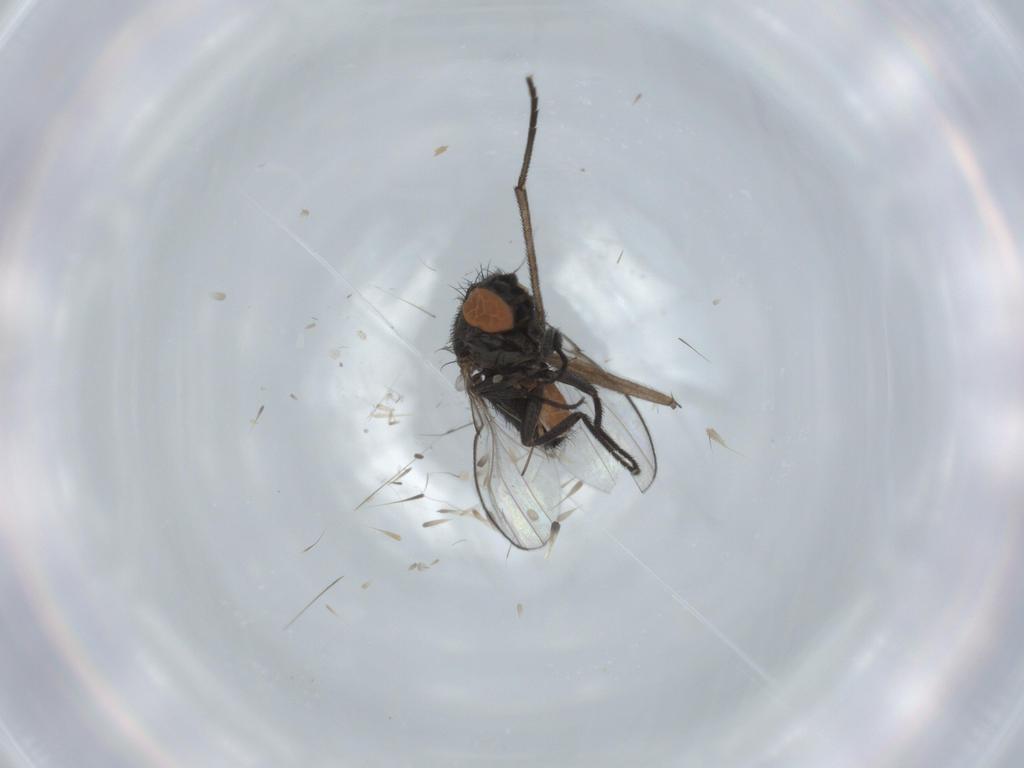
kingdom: Animalia
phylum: Arthropoda
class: Insecta
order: Diptera
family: Milichiidae
